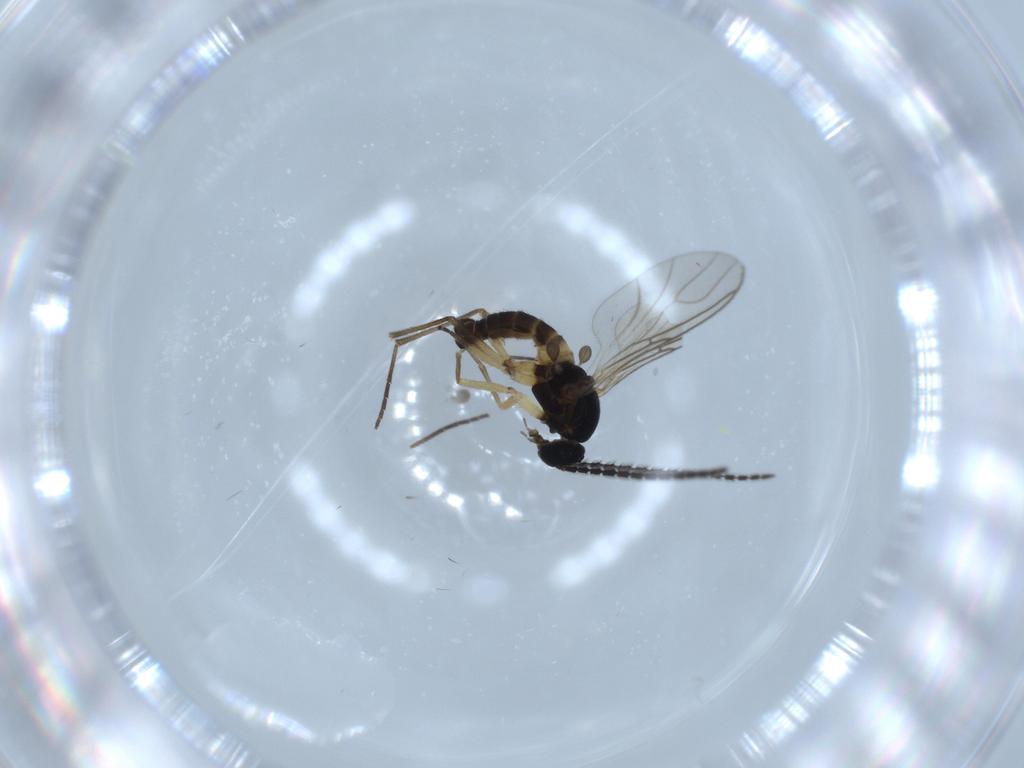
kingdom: Animalia
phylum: Arthropoda
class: Insecta
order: Diptera
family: Sciaridae
